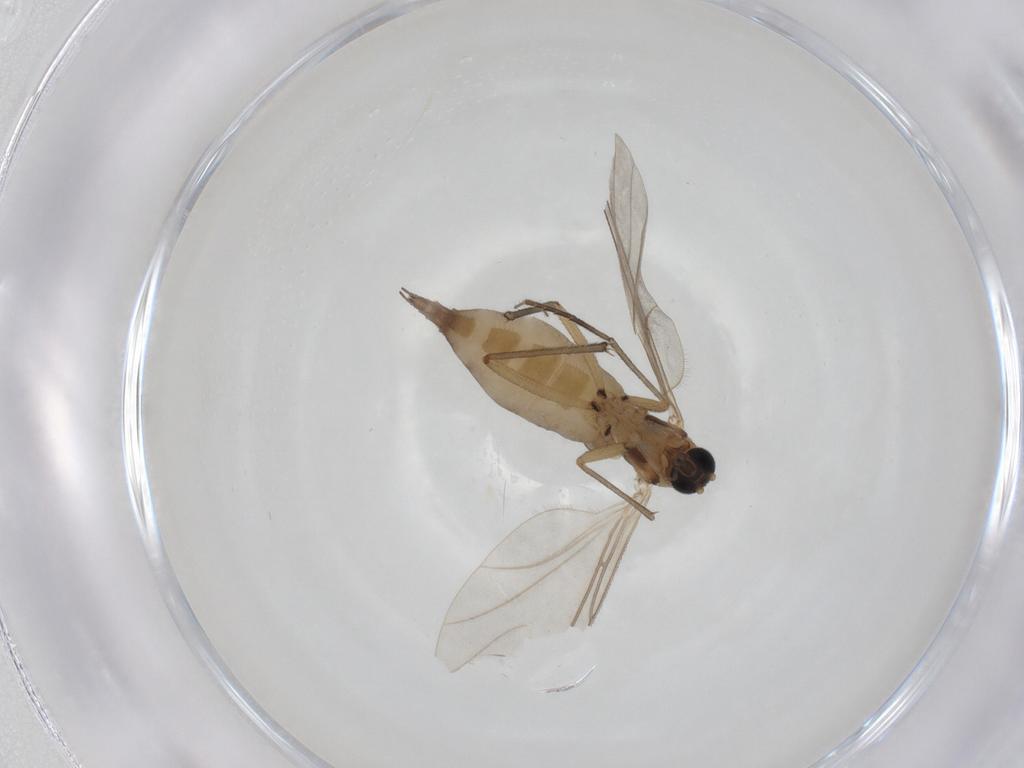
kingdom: Animalia
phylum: Arthropoda
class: Insecta
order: Diptera
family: Sciaridae
